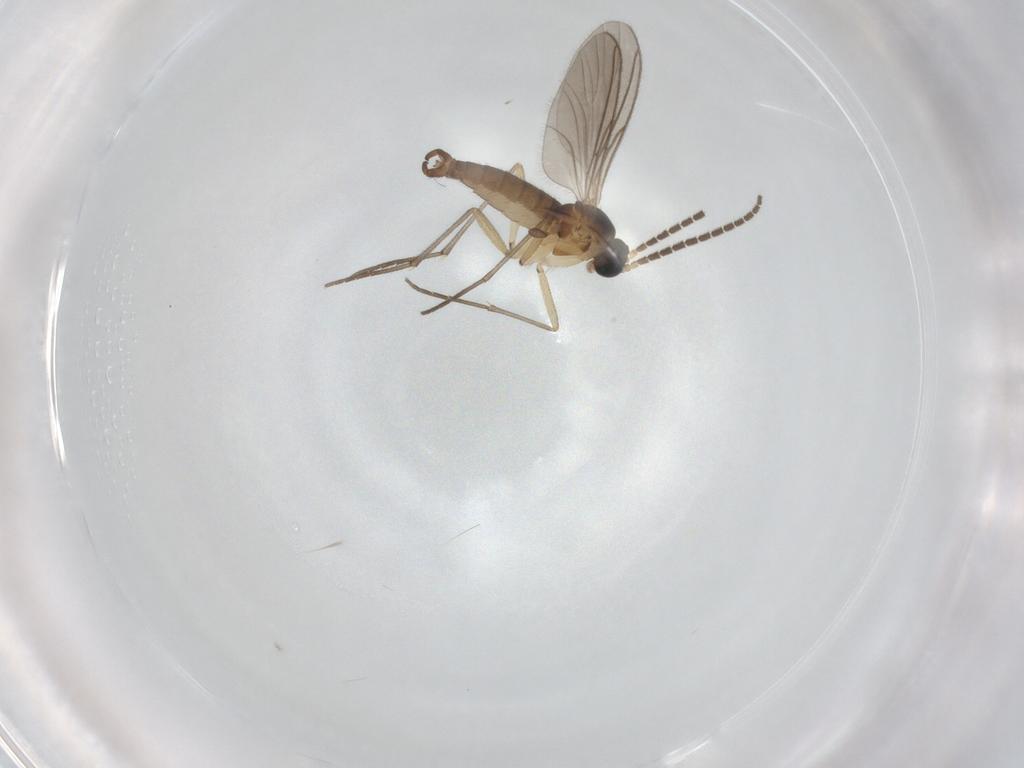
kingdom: Animalia
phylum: Arthropoda
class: Insecta
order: Diptera
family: Sciaridae
